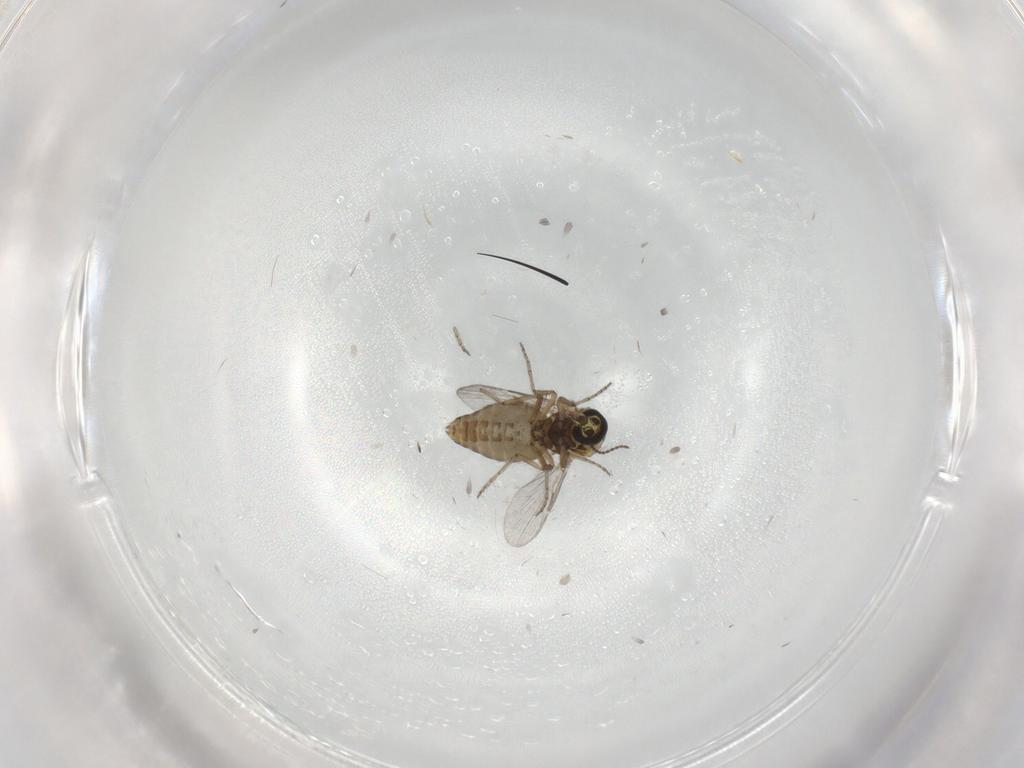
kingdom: Animalia
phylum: Arthropoda
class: Insecta
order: Diptera
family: Ceratopogonidae
